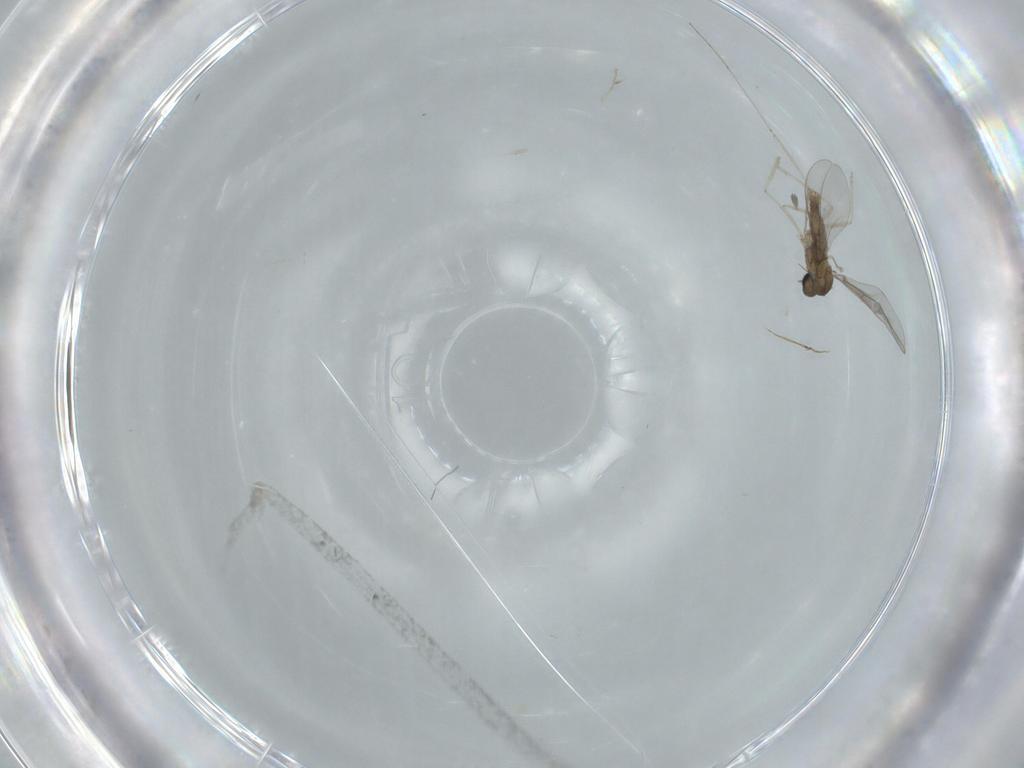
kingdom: Animalia
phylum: Arthropoda
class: Insecta
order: Diptera
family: Cecidomyiidae
